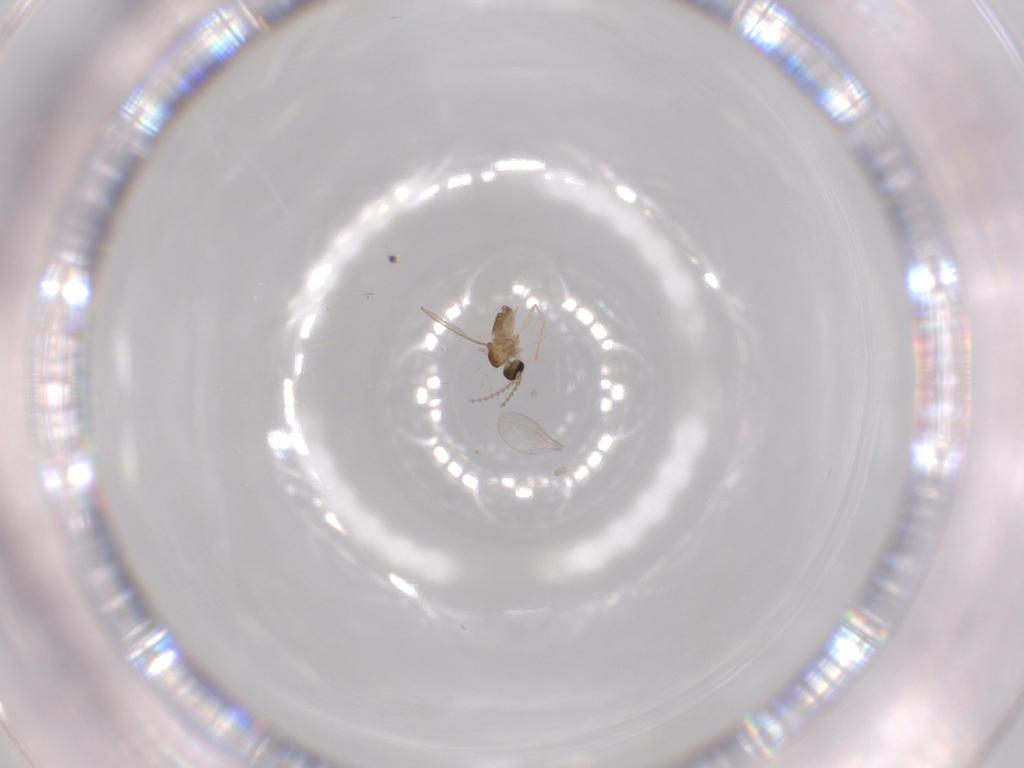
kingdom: Animalia
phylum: Arthropoda
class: Insecta
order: Diptera
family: Cecidomyiidae
